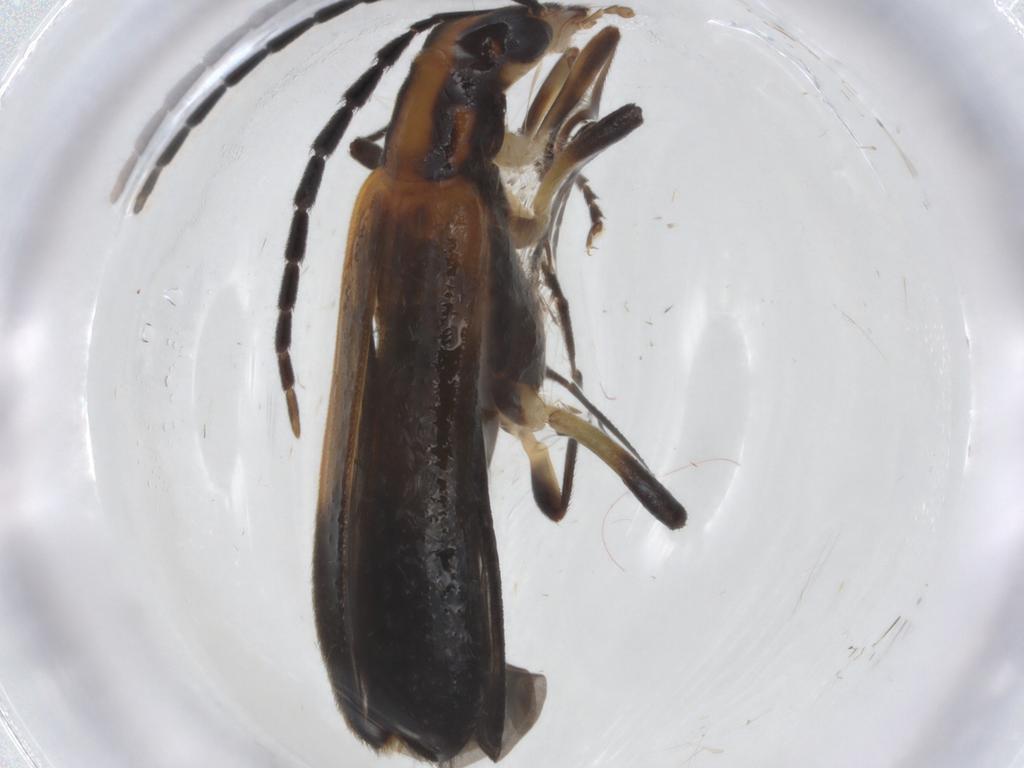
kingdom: Animalia
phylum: Arthropoda
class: Insecta
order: Coleoptera
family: Oedemeridae
